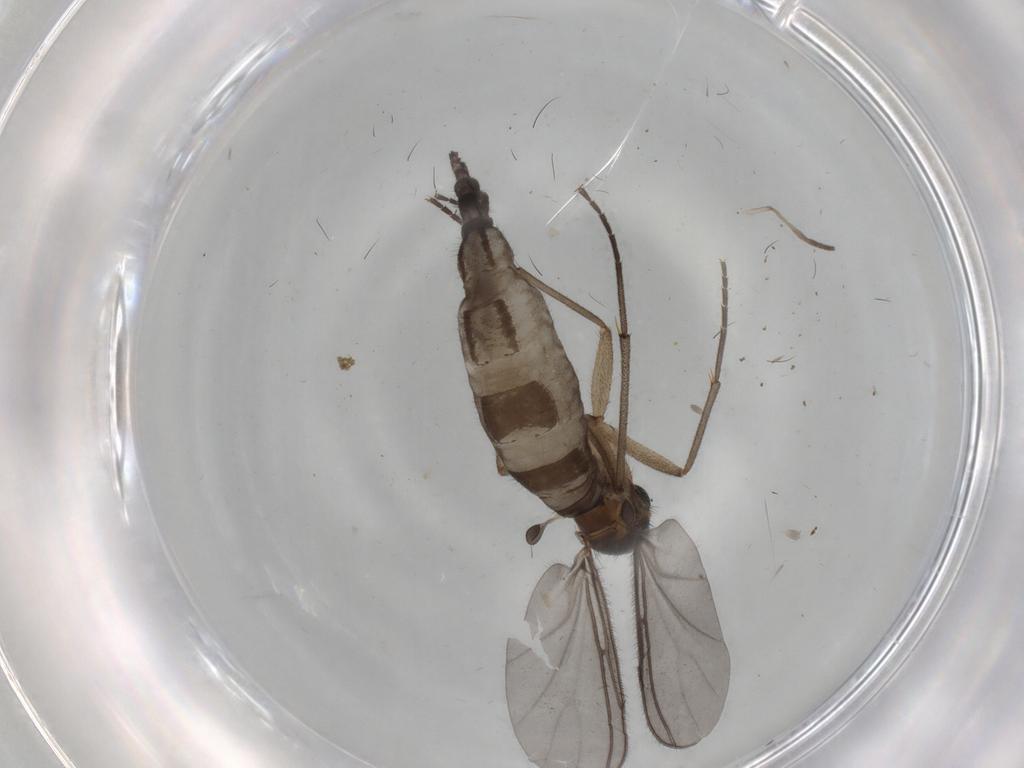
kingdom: Animalia
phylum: Arthropoda
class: Insecta
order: Diptera
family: Sciaridae
